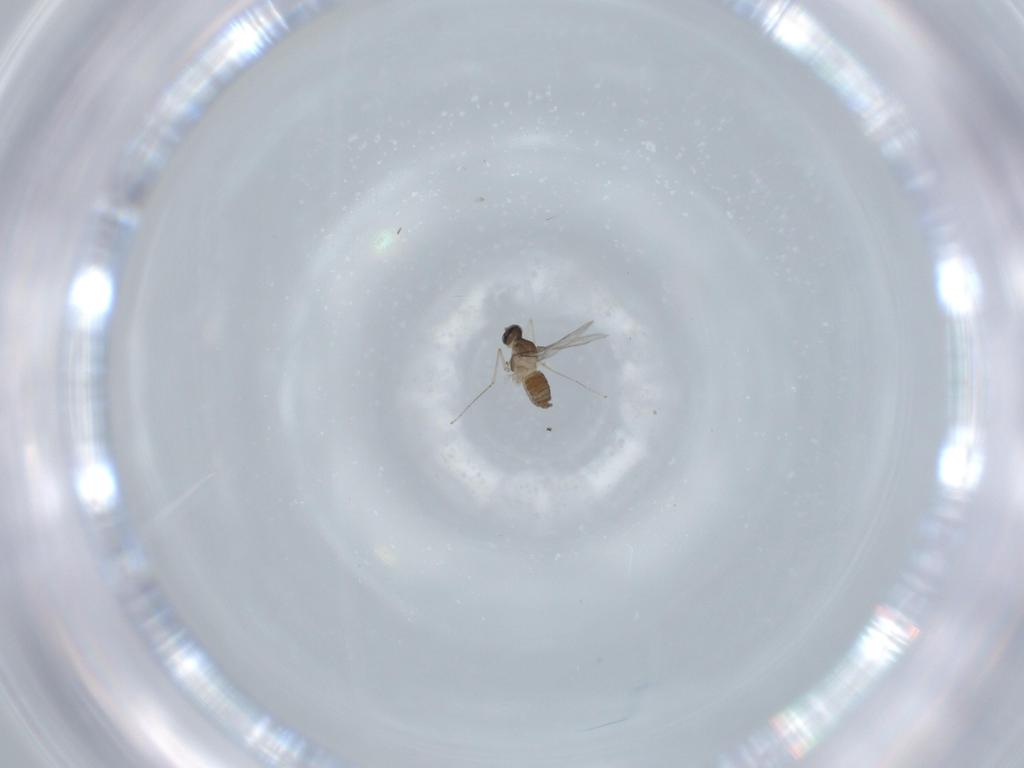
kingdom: Animalia
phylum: Arthropoda
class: Insecta
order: Diptera
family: Cecidomyiidae
